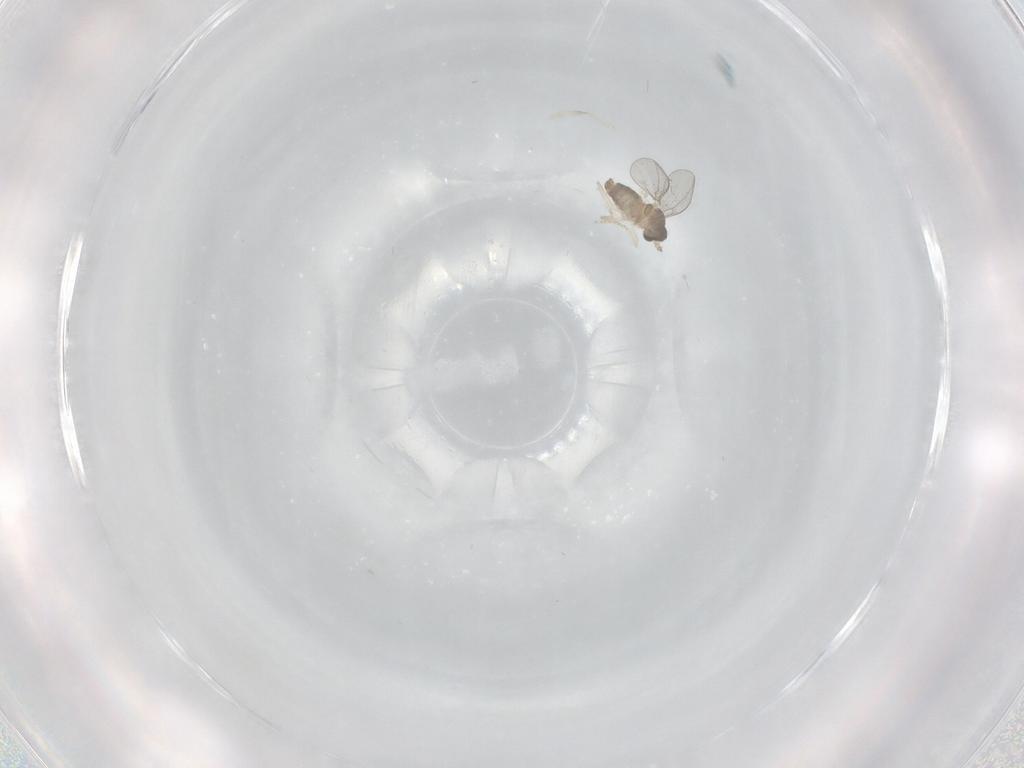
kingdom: Animalia
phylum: Arthropoda
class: Insecta
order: Diptera
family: Cecidomyiidae
